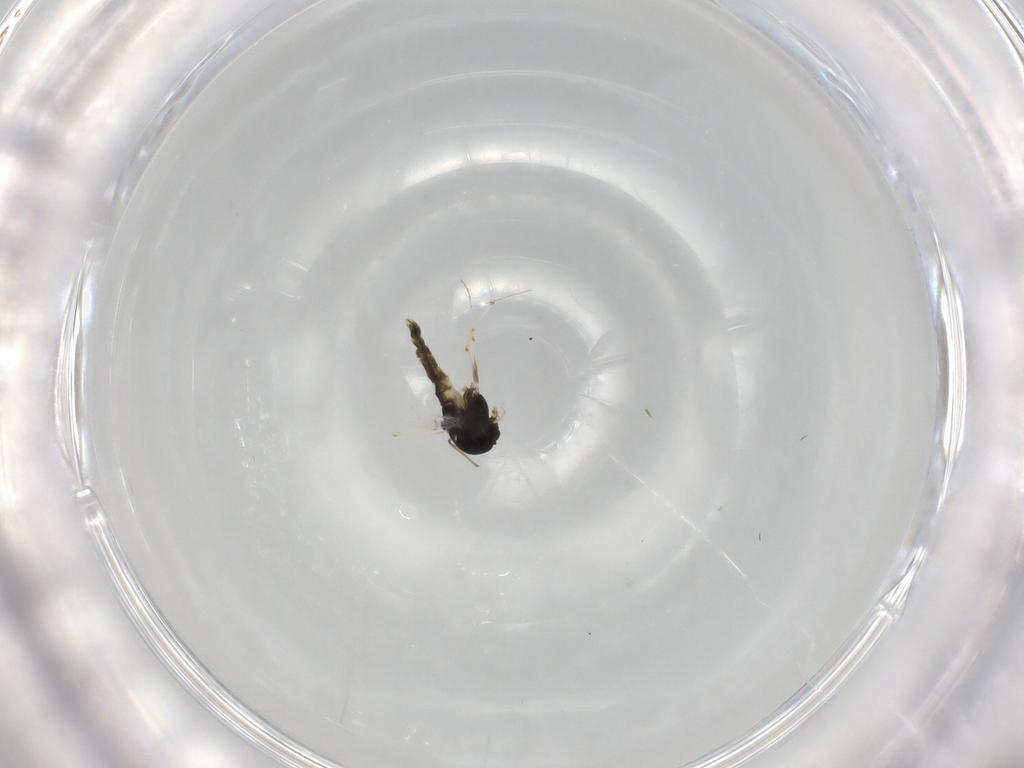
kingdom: Animalia
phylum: Arthropoda
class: Insecta
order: Diptera
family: Chironomidae
